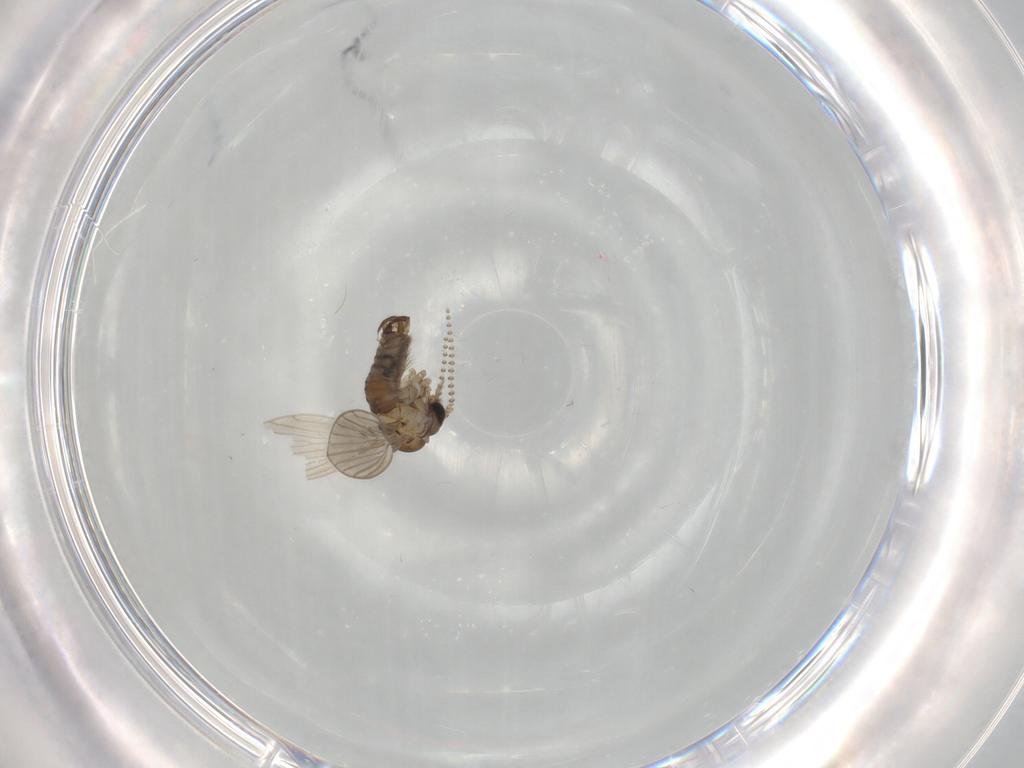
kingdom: Animalia
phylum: Arthropoda
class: Insecta
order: Diptera
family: Psychodidae
